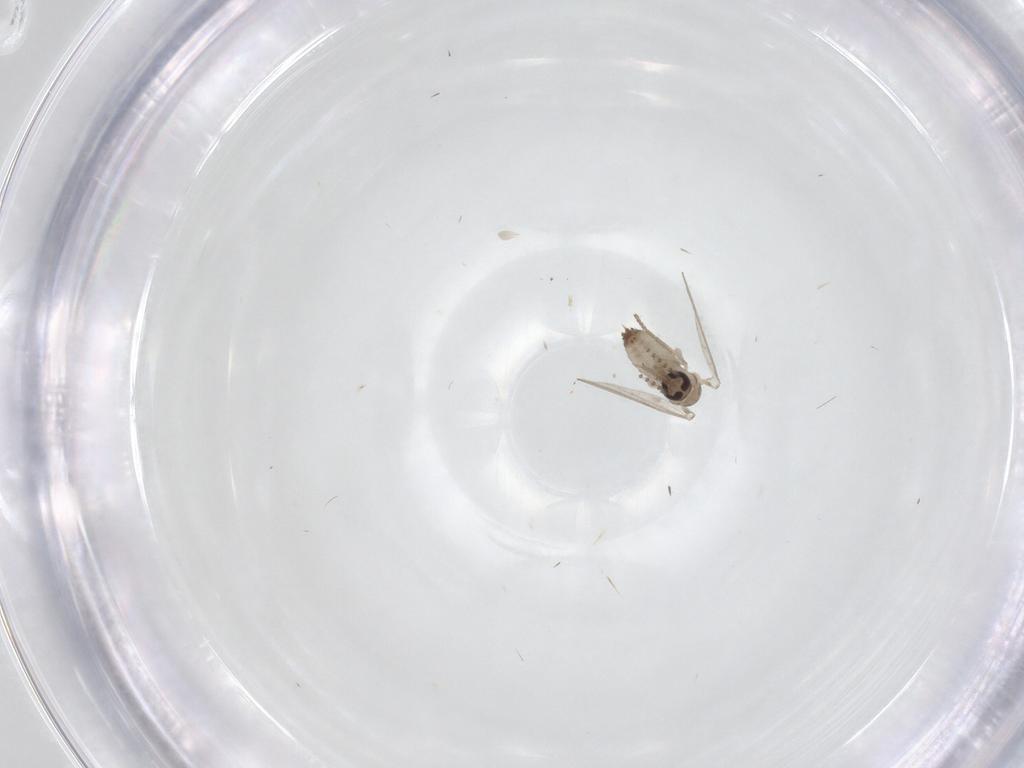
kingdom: Animalia
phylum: Arthropoda
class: Insecta
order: Diptera
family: Psychodidae
